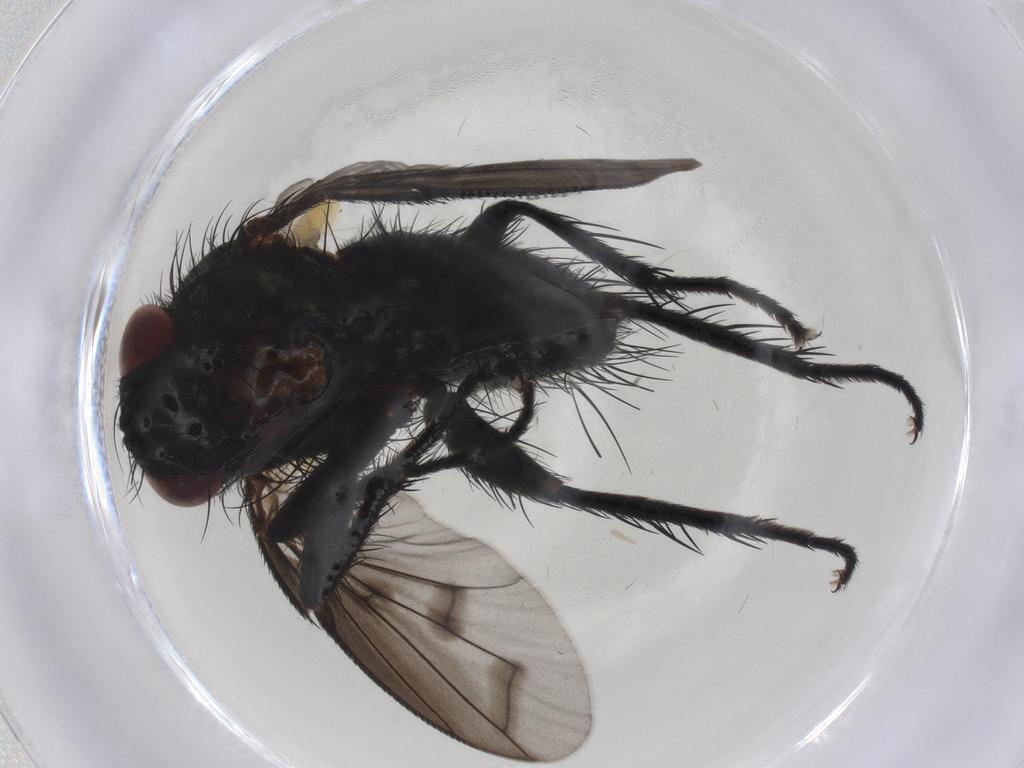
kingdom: Animalia
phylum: Arthropoda
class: Insecta
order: Diptera
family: Tachinidae
